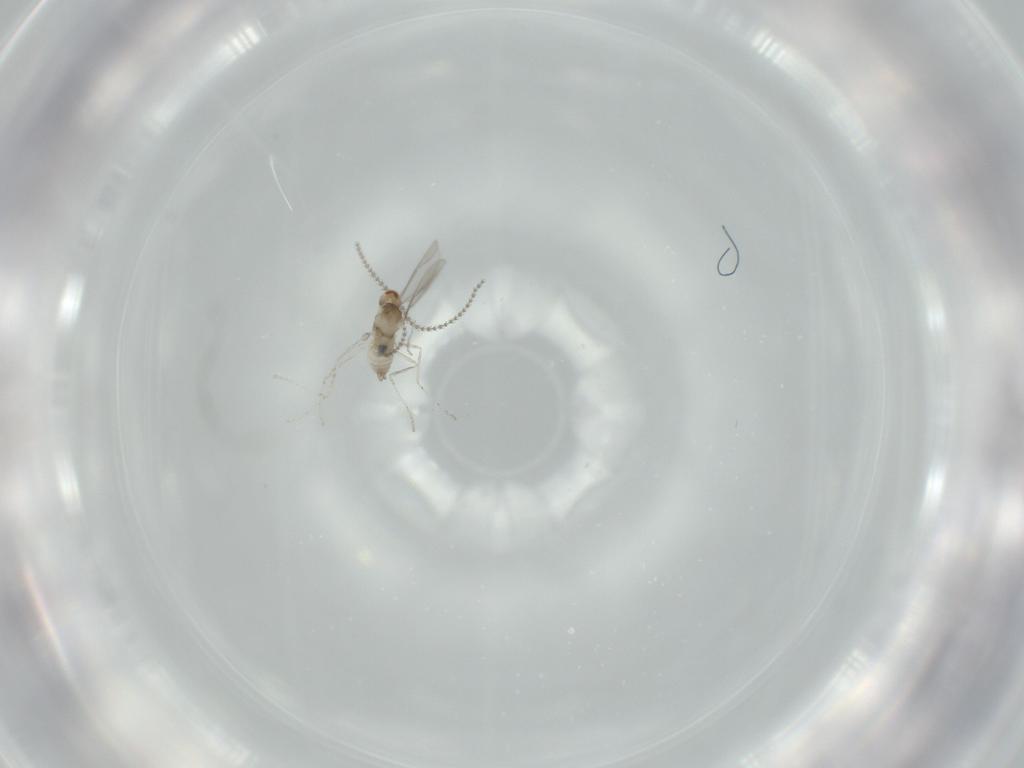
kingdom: Animalia
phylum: Arthropoda
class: Insecta
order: Diptera
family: Cecidomyiidae
